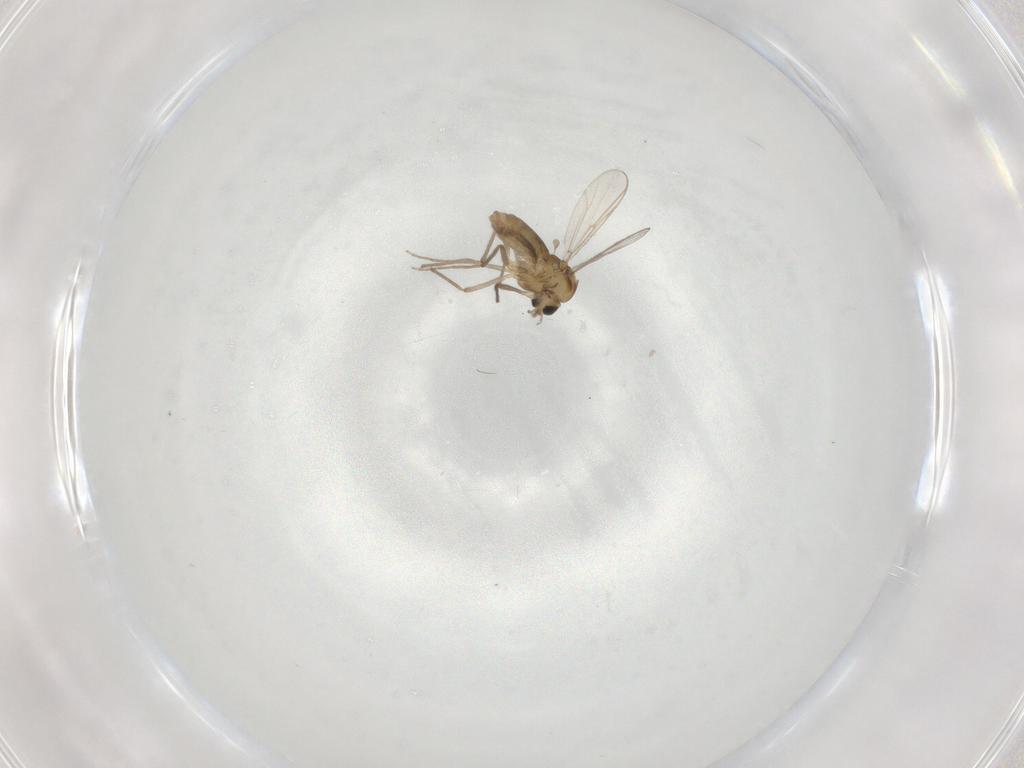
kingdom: Animalia
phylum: Arthropoda
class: Insecta
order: Diptera
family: Chironomidae
